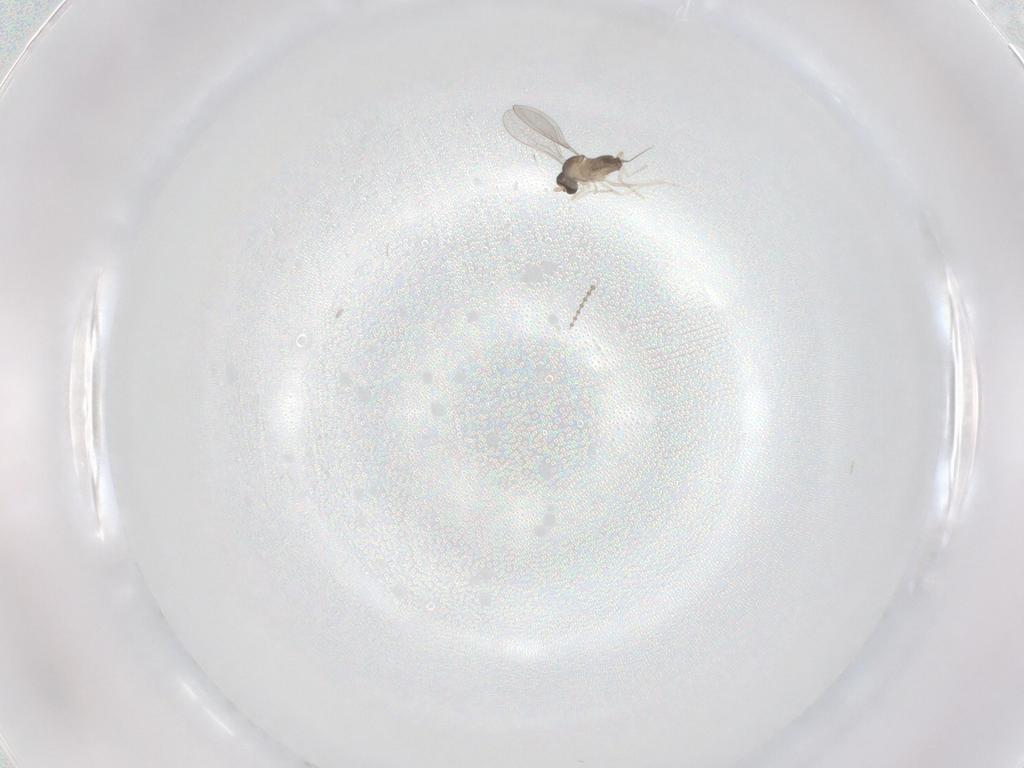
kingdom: Animalia
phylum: Arthropoda
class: Insecta
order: Diptera
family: Cecidomyiidae
